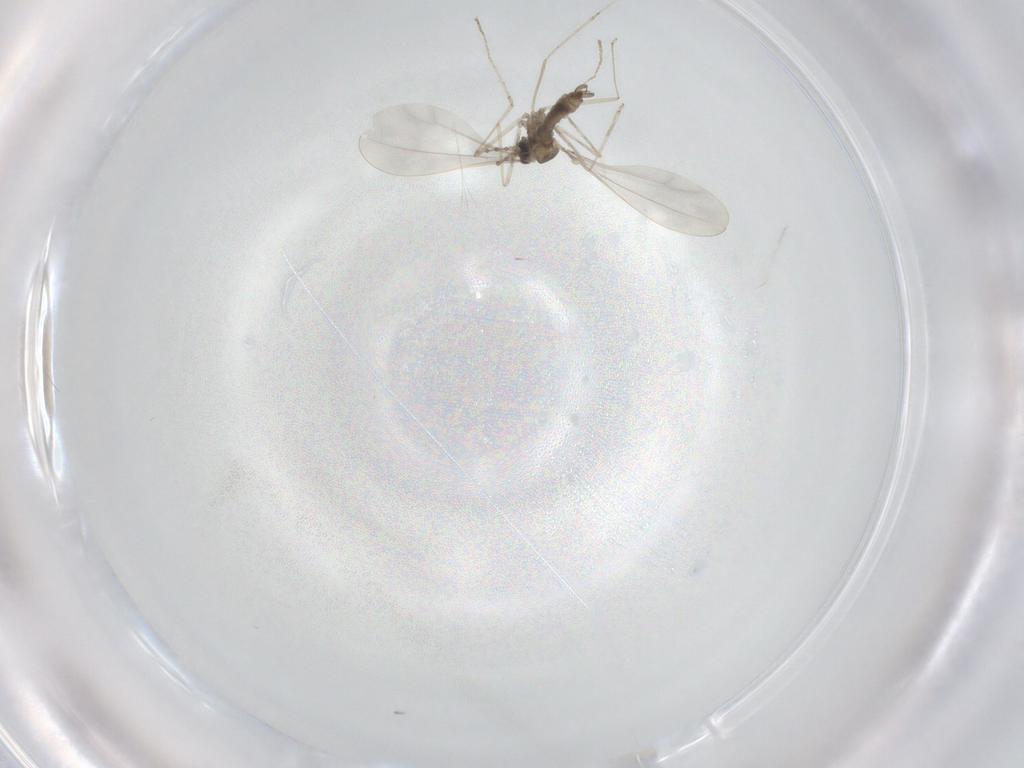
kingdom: Animalia
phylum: Arthropoda
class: Insecta
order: Diptera
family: Cecidomyiidae
